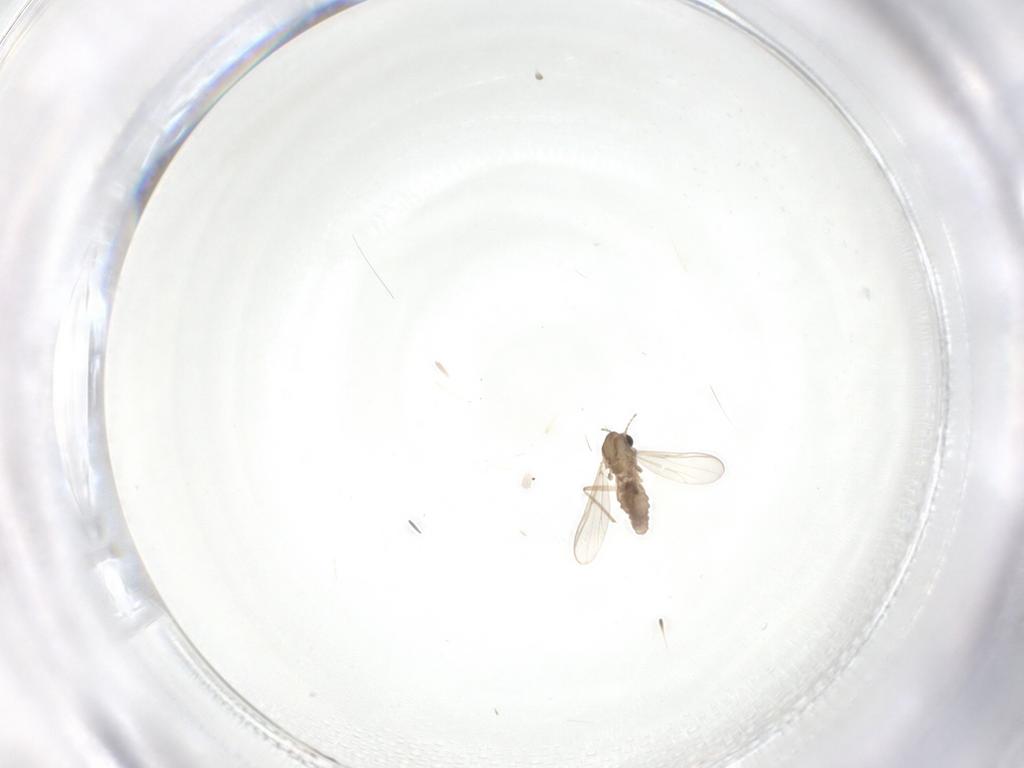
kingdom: Animalia
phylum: Arthropoda
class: Insecta
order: Diptera
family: Chironomidae
